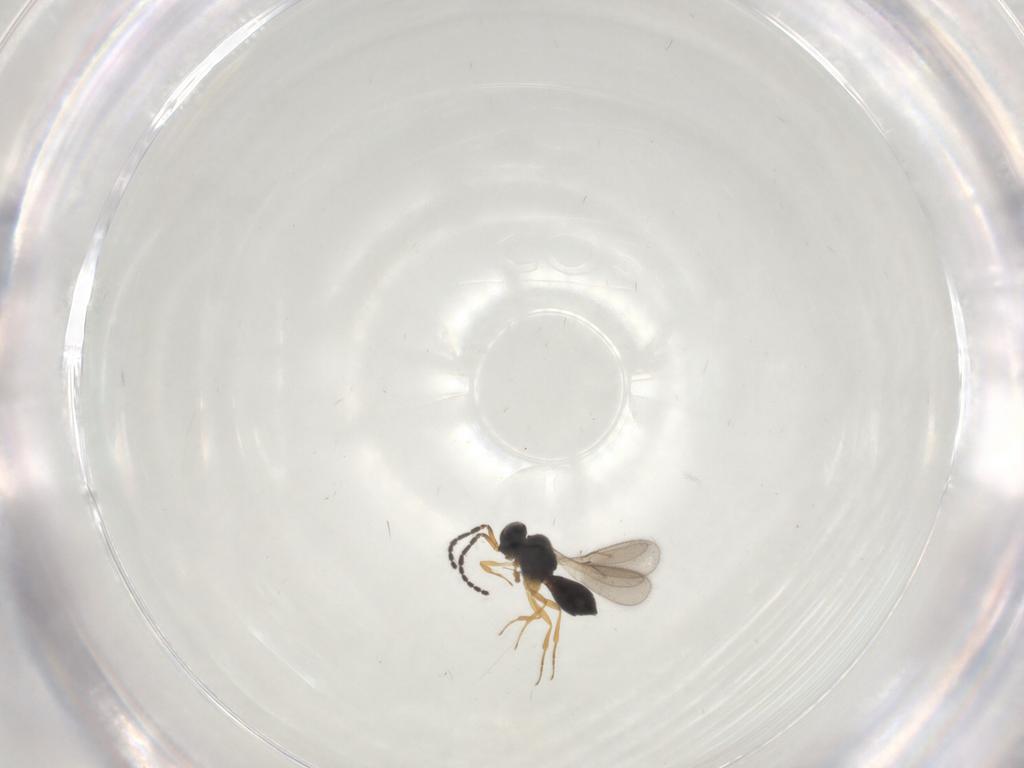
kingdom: Animalia
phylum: Arthropoda
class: Insecta
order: Hymenoptera
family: Scelionidae
